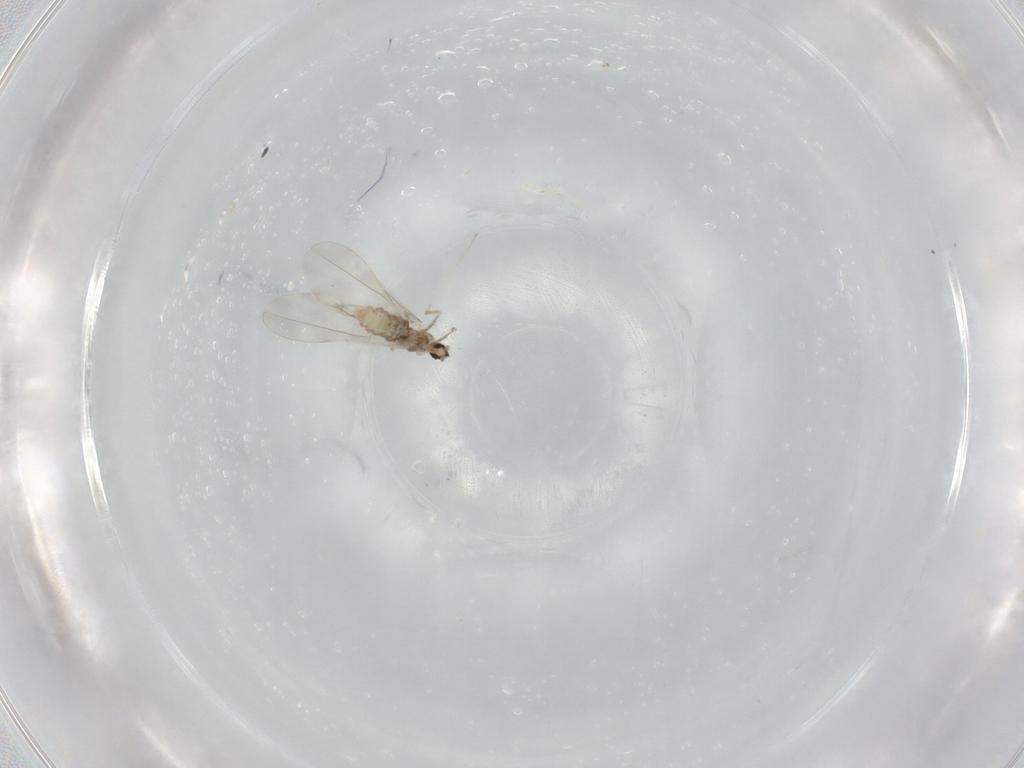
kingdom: Animalia
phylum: Arthropoda
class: Insecta
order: Diptera
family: Cecidomyiidae
